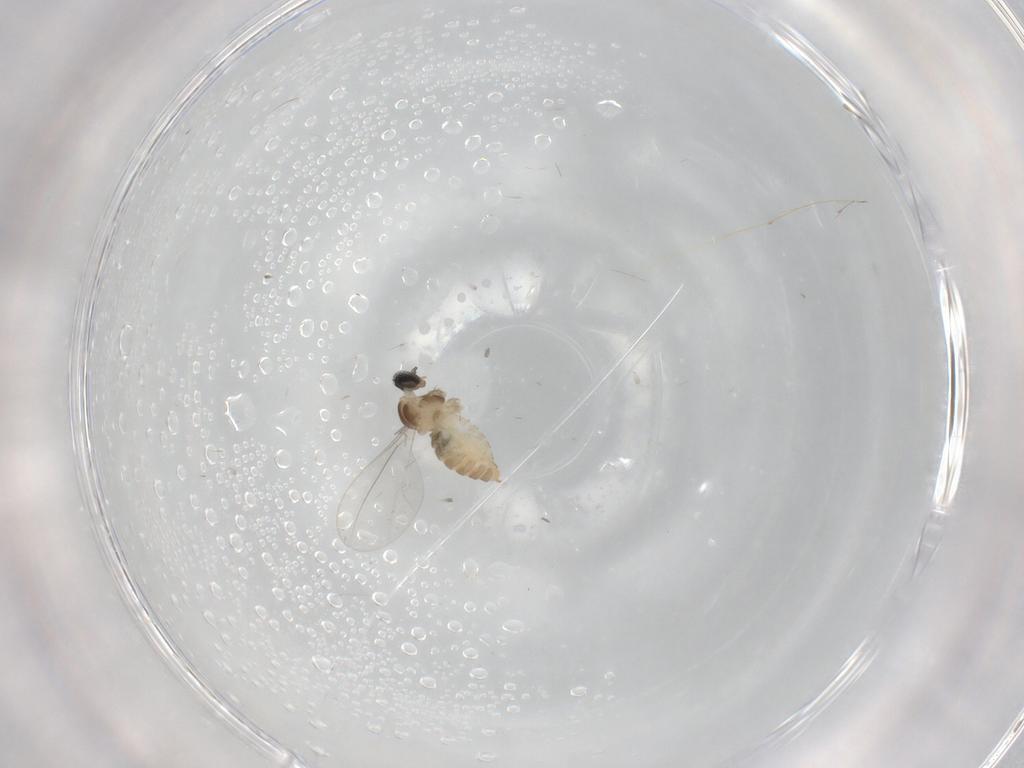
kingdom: Animalia
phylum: Arthropoda
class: Insecta
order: Diptera
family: Cecidomyiidae
